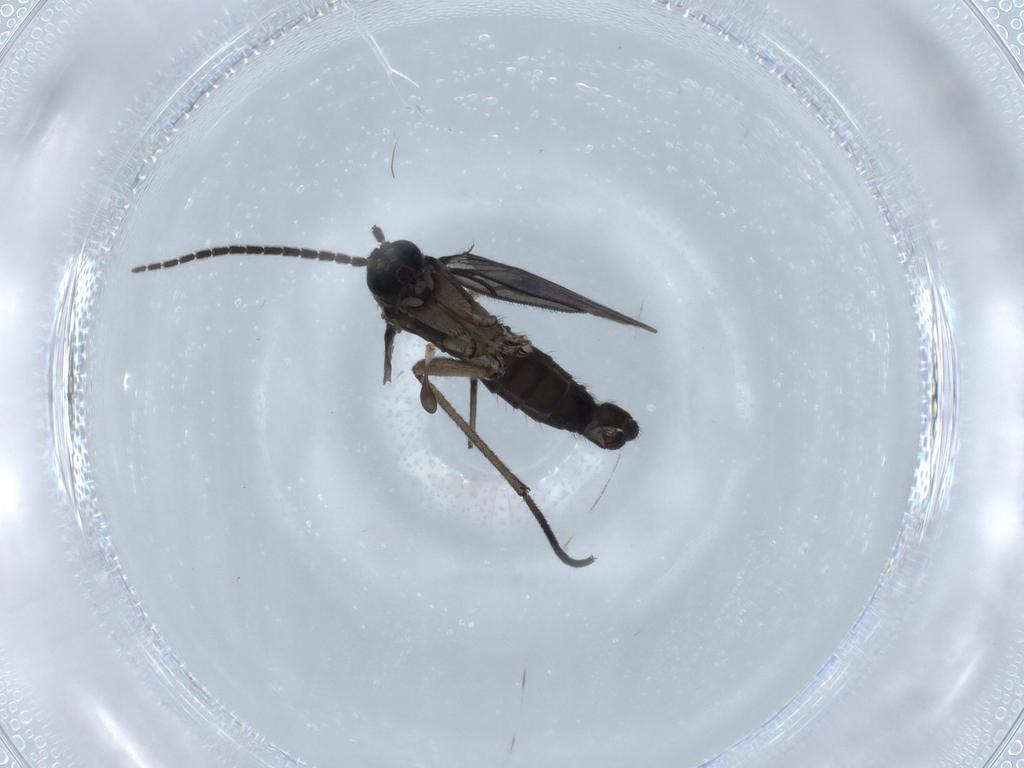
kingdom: Animalia
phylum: Arthropoda
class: Insecta
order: Diptera
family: Sciaridae
